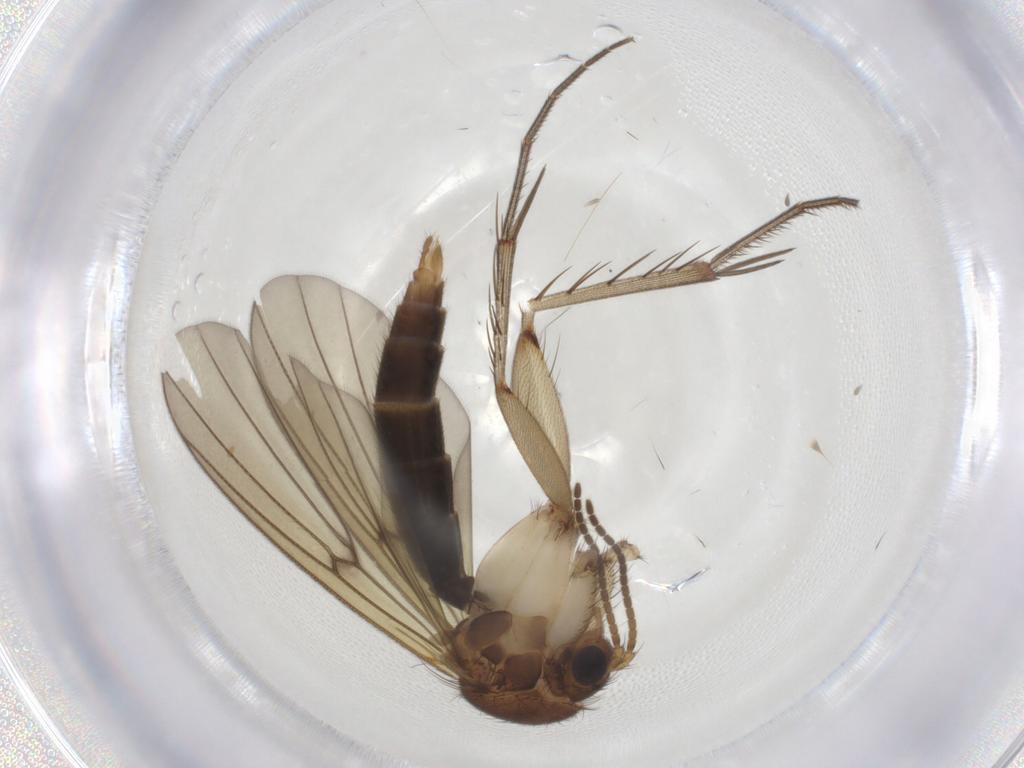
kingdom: Animalia
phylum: Arthropoda
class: Insecta
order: Diptera
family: Mycetophilidae
